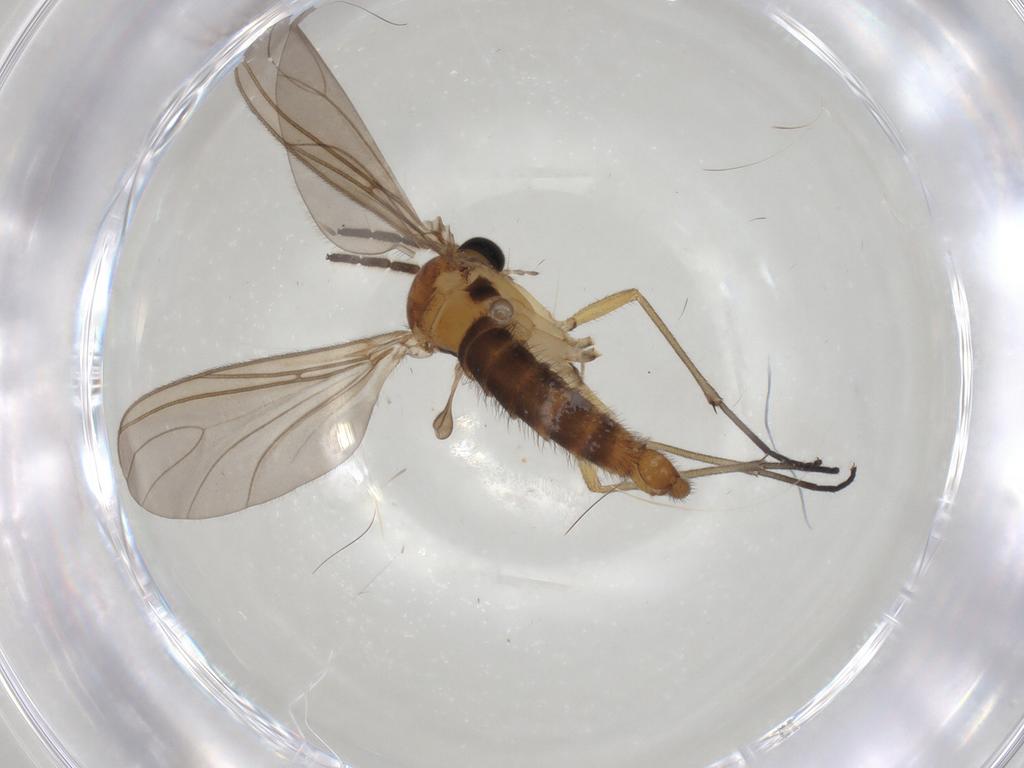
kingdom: Animalia
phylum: Arthropoda
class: Insecta
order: Diptera
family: Sciaridae
